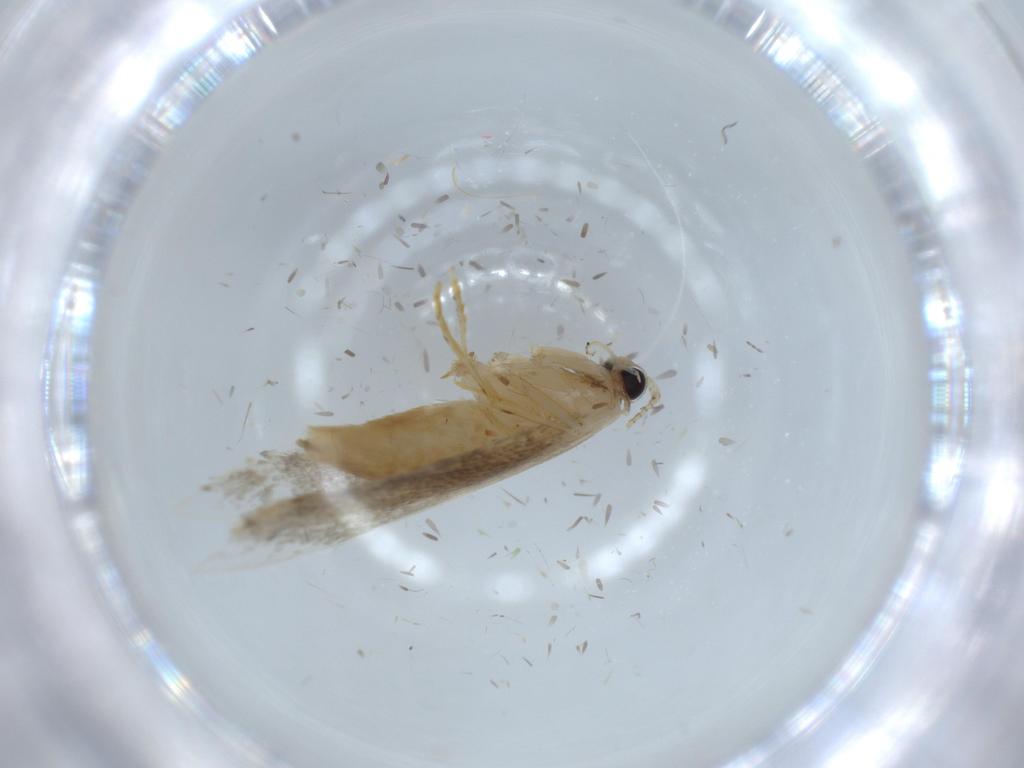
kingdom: Animalia
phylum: Arthropoda
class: Insecta
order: Lepidoptera
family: Tineidae
